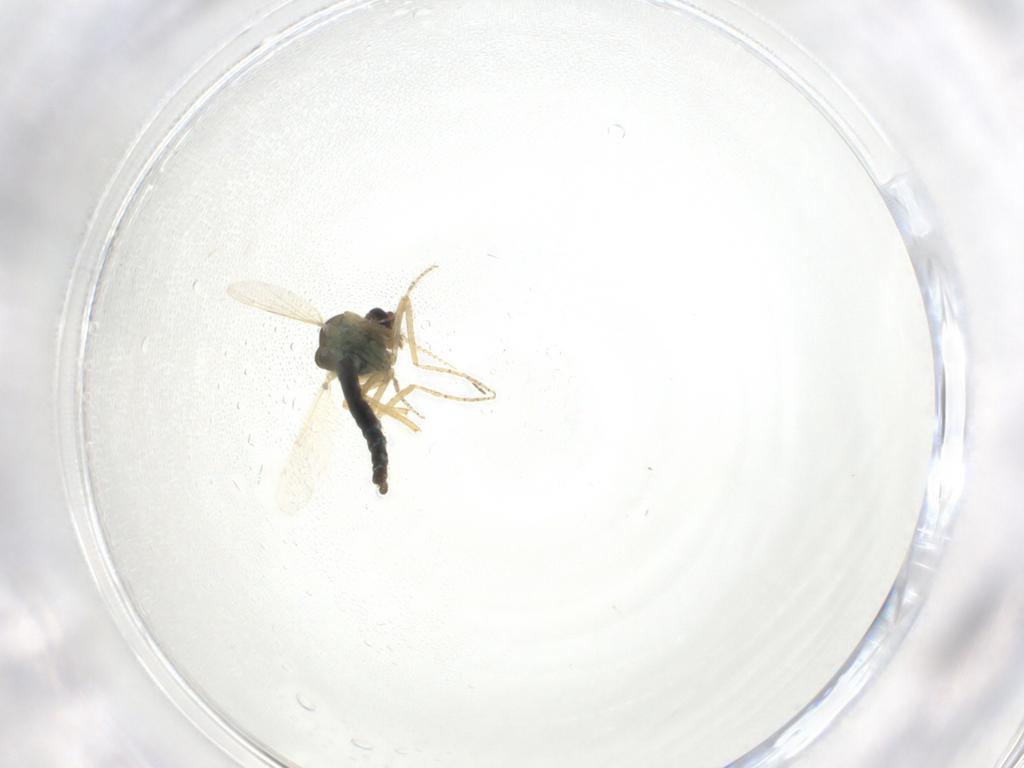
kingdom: Animalia
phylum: Arthropoda
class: Insecta
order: Diptera
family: Ceratopogonidae
